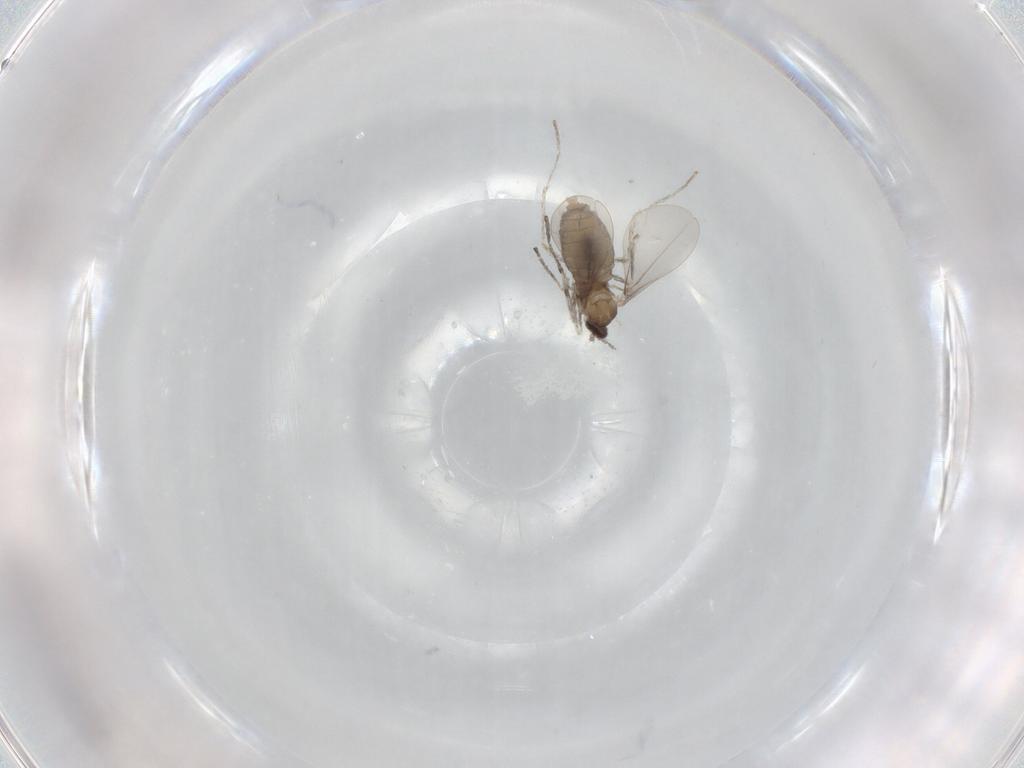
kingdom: Animalia
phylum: Arthropoda
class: Insecta
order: Diptera
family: Cecidomyiidae
